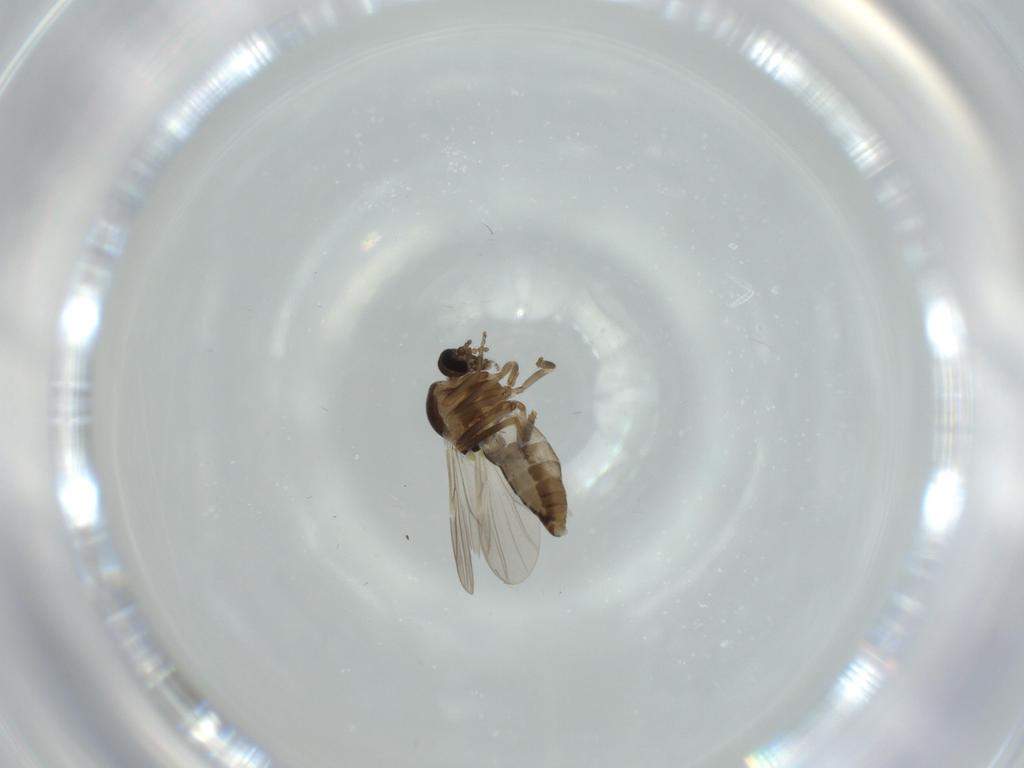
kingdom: Animalia
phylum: Arthropoda
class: Insecta
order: Diptera
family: Ceratopogonidae
